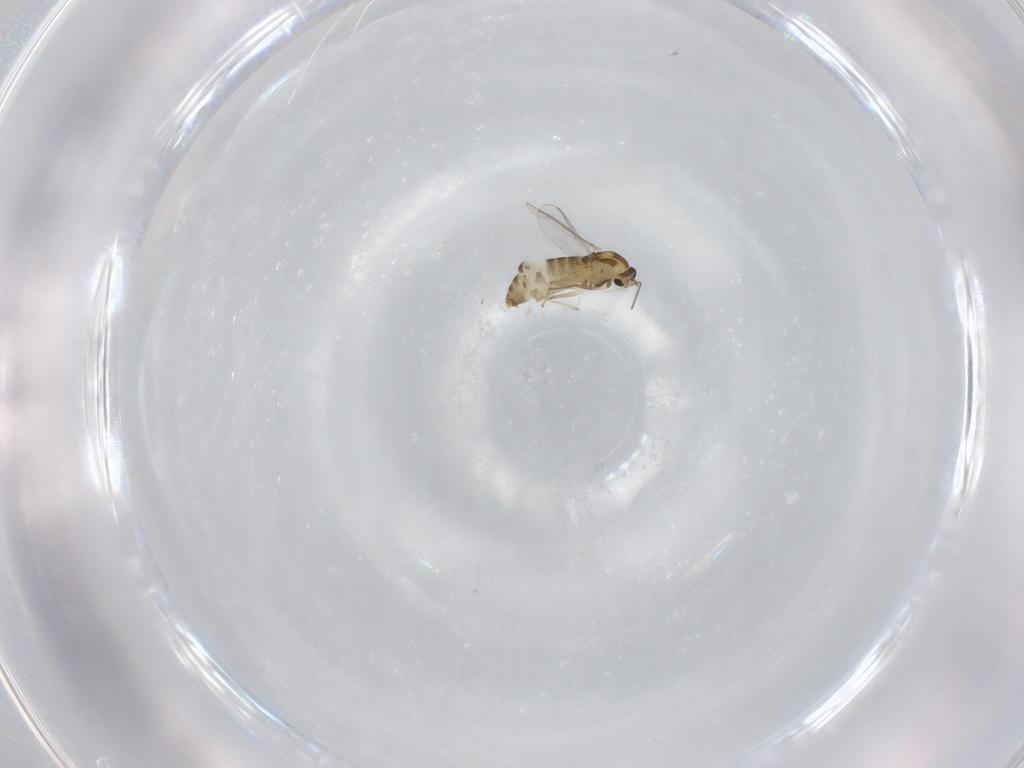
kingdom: Animalia
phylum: Arthropoda
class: Insecta
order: Diptera
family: Chironomidae
